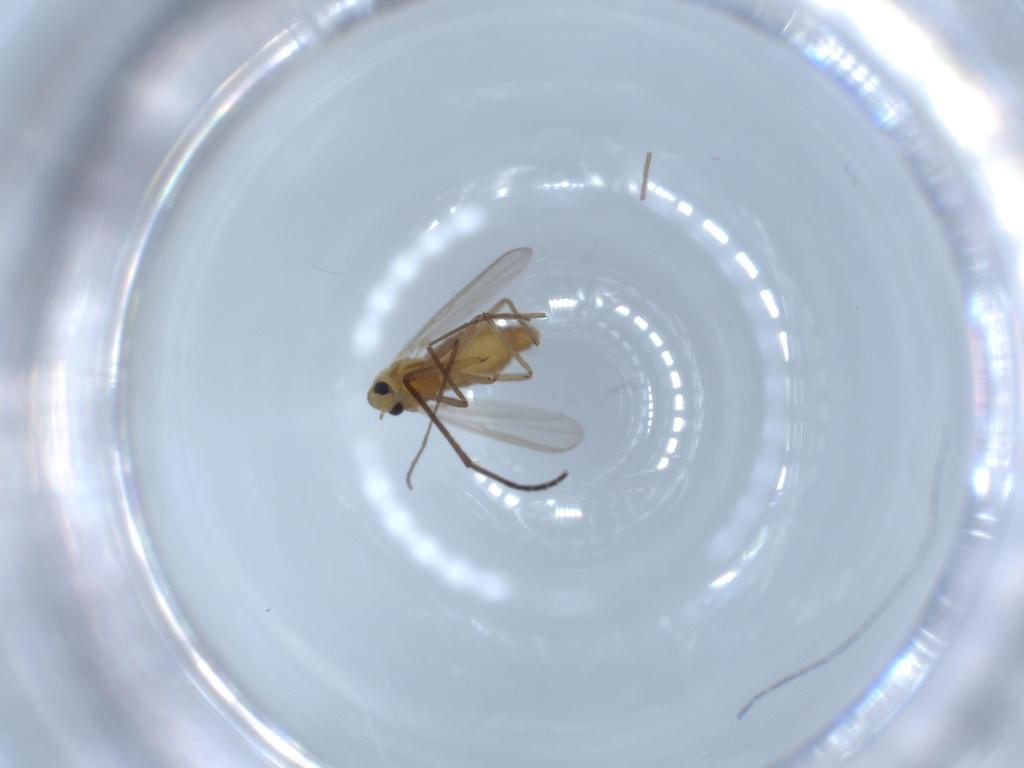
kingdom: Animalia
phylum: Arthropoda
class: Insecta
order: Diptera
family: Chironomidae
